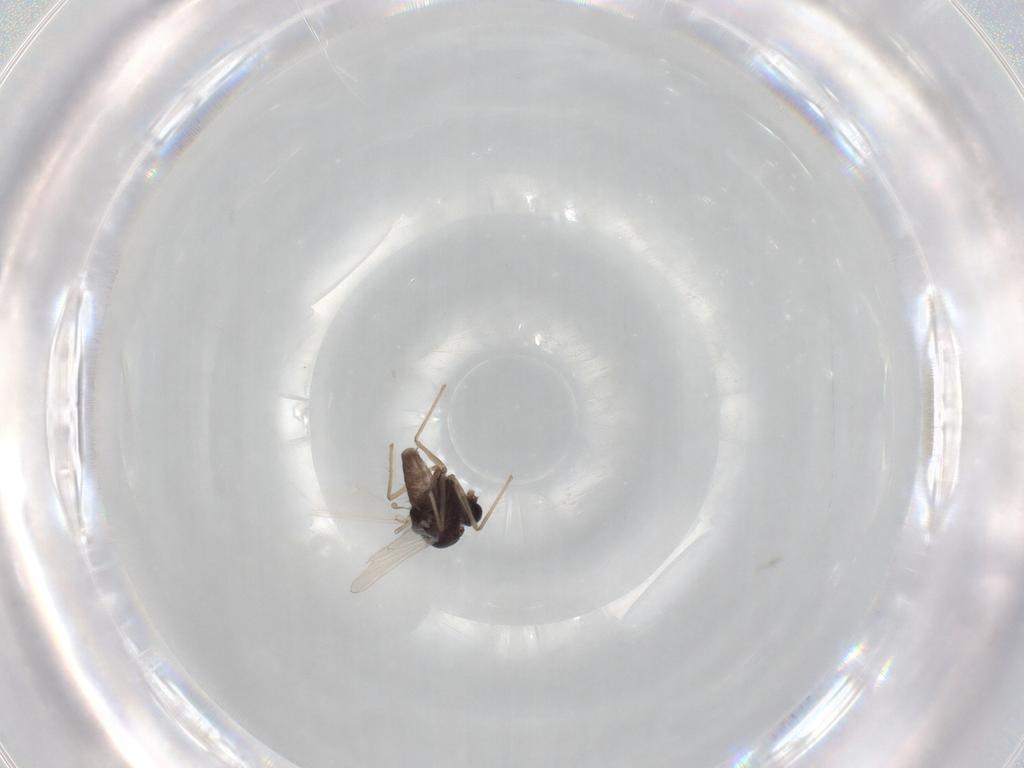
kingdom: Animalia
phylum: Arthropoda
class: Insecta
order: Diptera
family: Chironomidae
